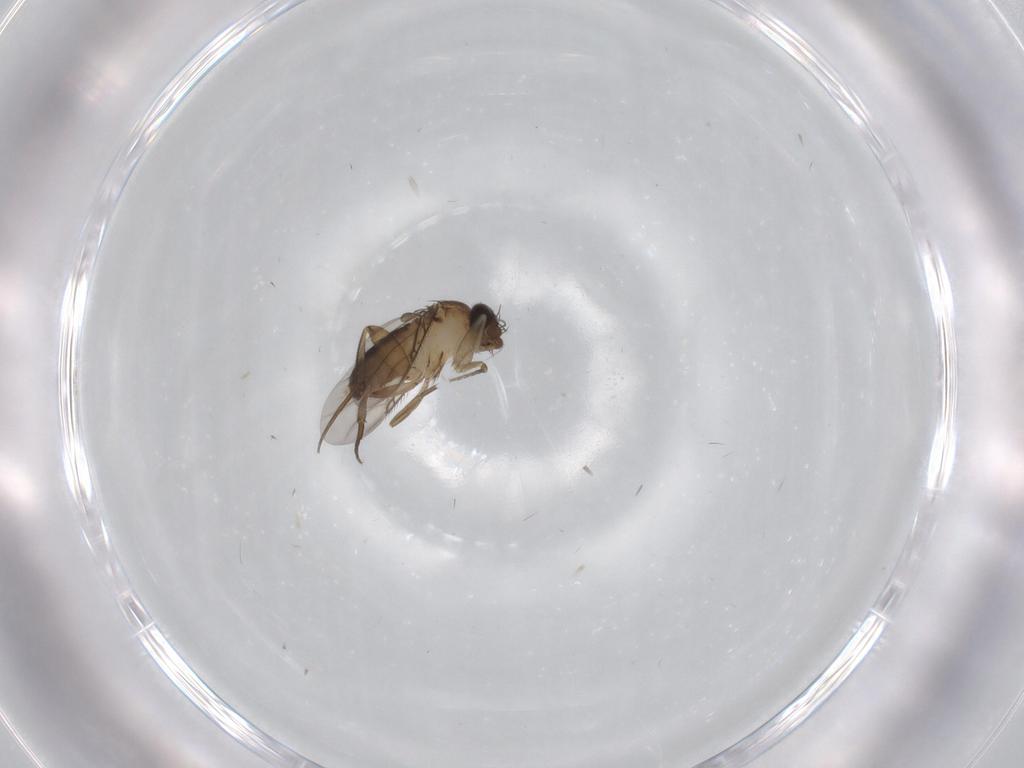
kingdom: Animalia
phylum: Arthropoda
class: Insecta
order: Diptera
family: Phoridae
